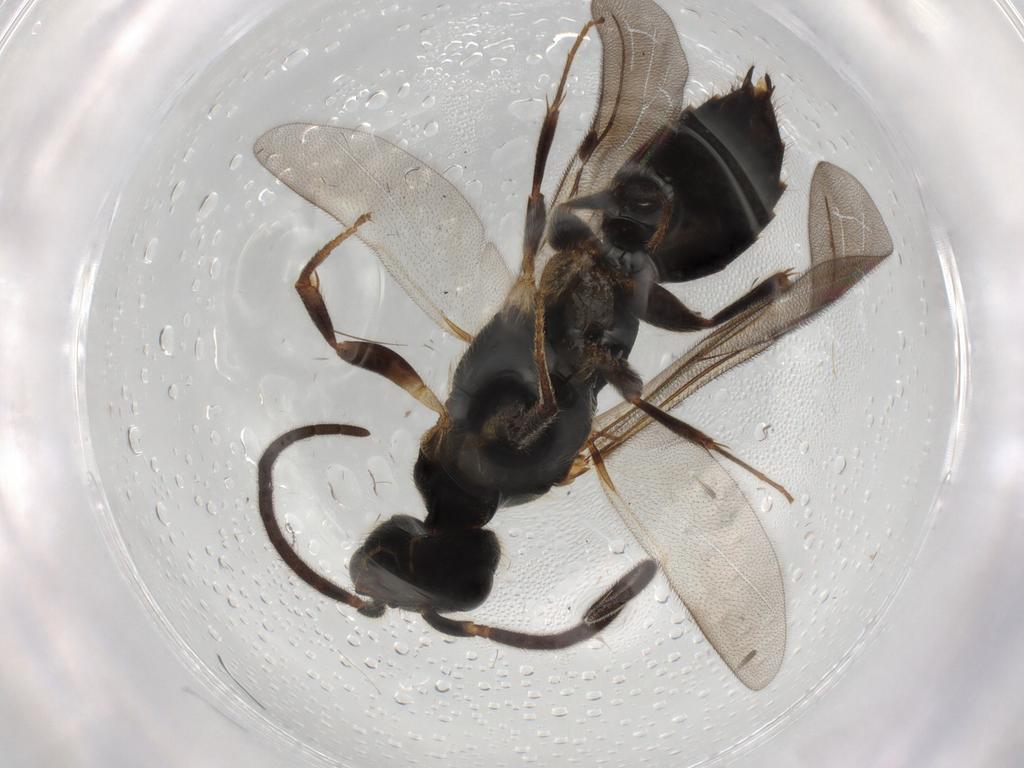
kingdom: Animalia
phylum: Arthropoda
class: Insecta
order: Hymenoptera
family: Bethylidae
